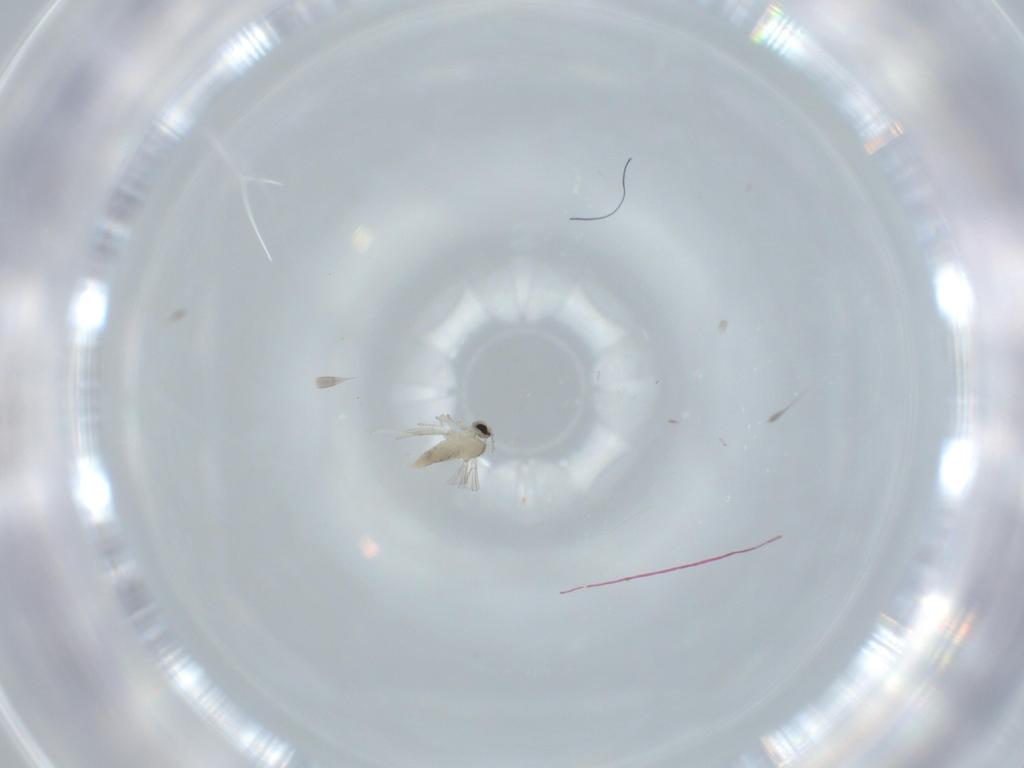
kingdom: Animalia
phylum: Arthropoda
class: Insecta
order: Diptera
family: Cecidomyiidae
